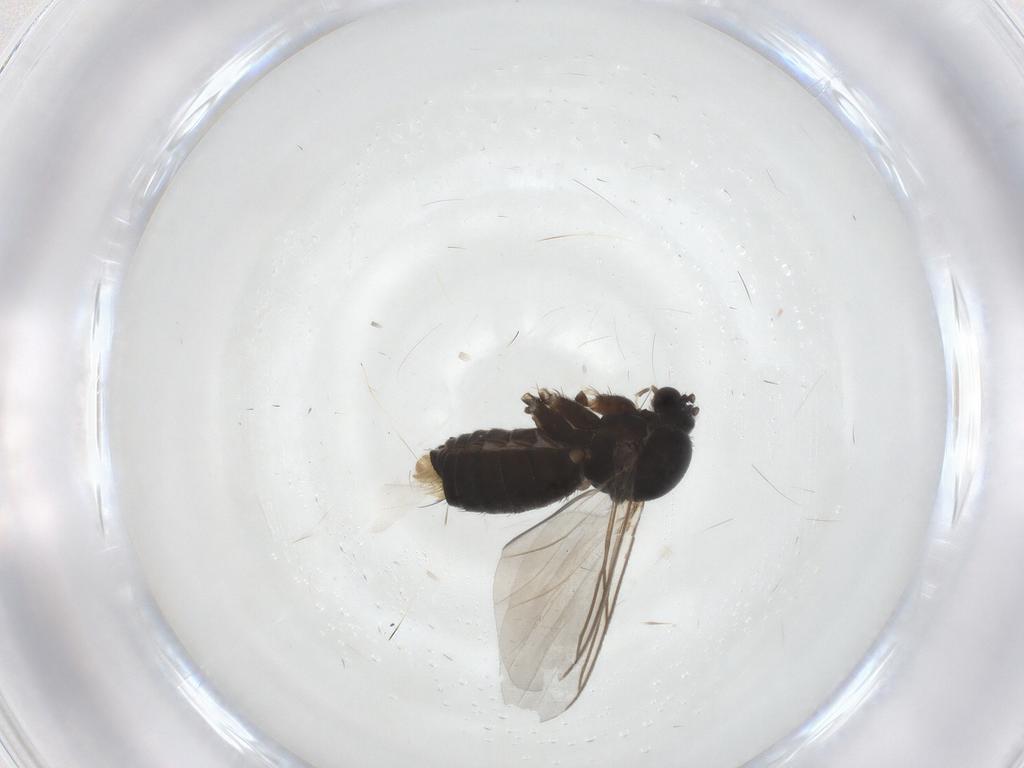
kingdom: Animalia
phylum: Arthropoda
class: Insecta
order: Diptera
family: Mycetophilidae
